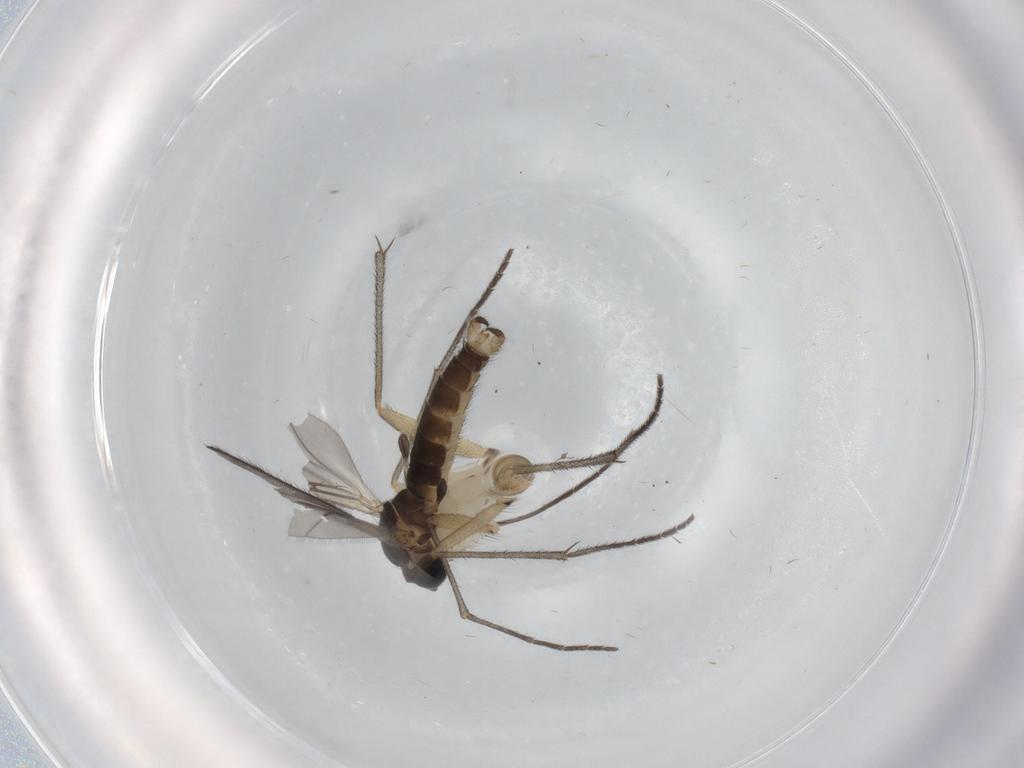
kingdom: Animalia
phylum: Arthropoda
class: Insecta
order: Diptera
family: Sciaridae
